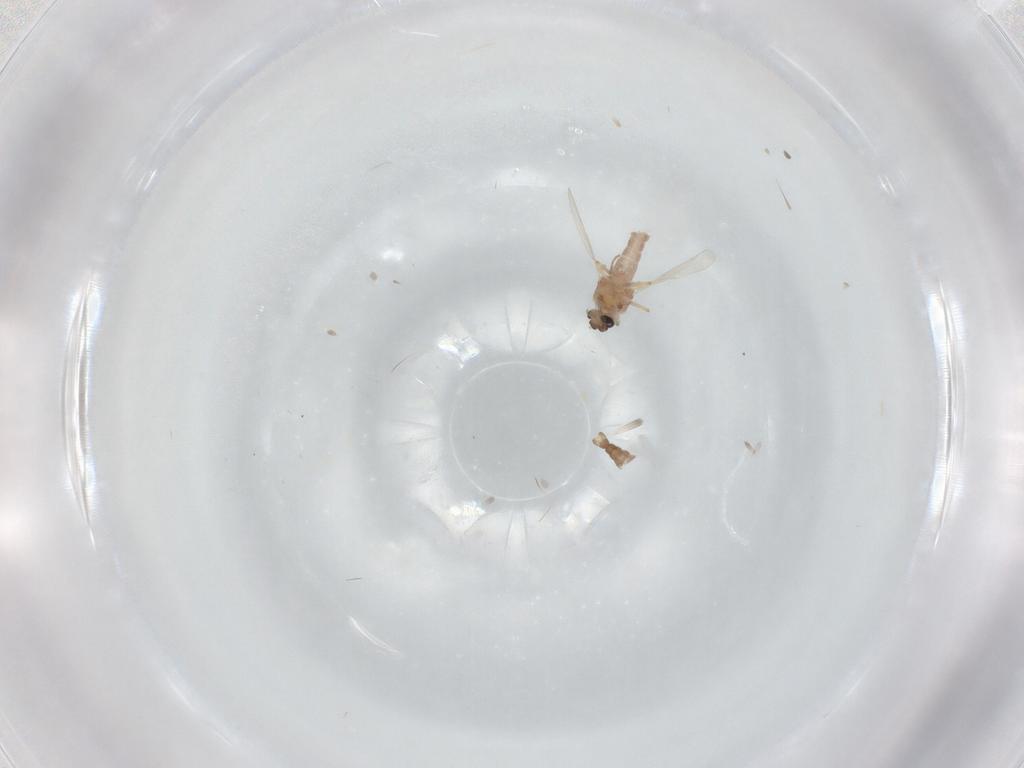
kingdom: Animalia
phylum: Arthropoda
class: Insecta
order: Diptera
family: Ceratopogonidae
